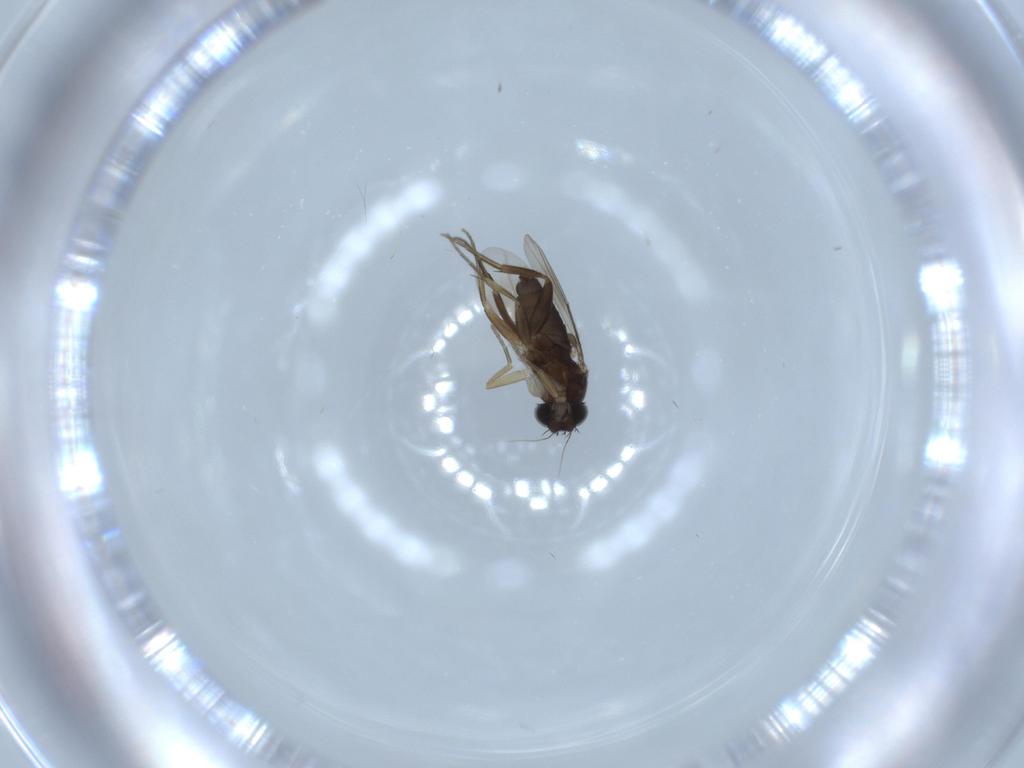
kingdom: Animalia
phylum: Arthropoda
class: Insecta
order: Diptera
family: Phoridae
